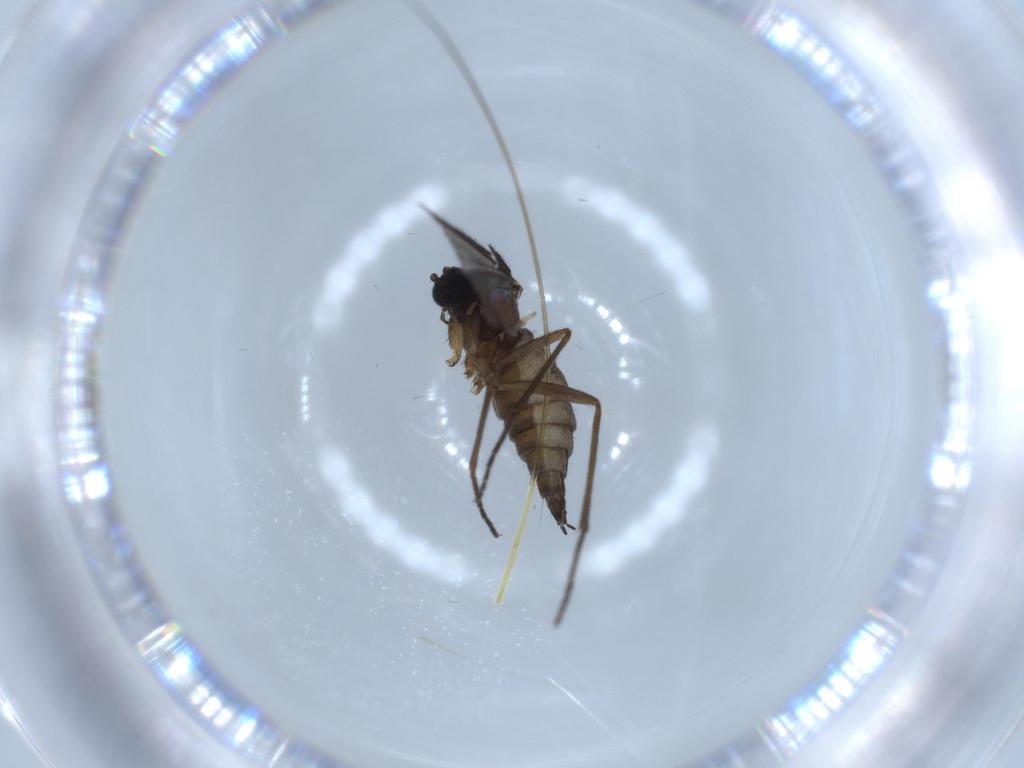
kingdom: Animalia
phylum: Arthropoda
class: Insecta
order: Diptera
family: Sciaridae
